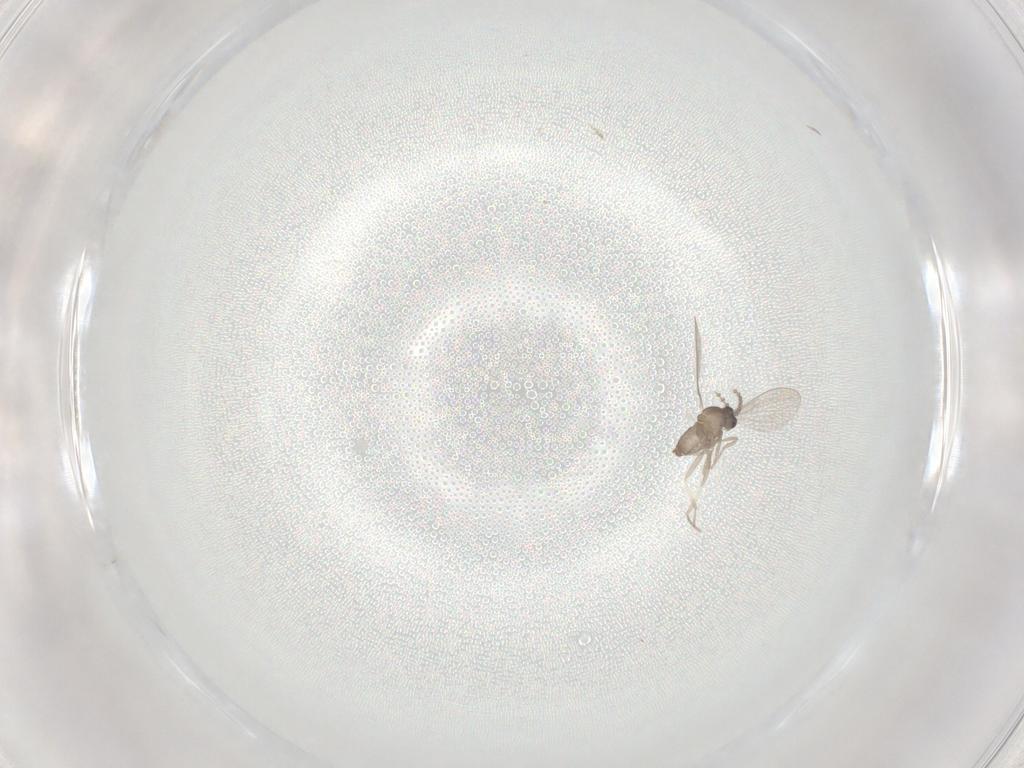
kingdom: Animalia
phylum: Arthropoda
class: Insecta
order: Diptera
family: Cecidomyiidae
